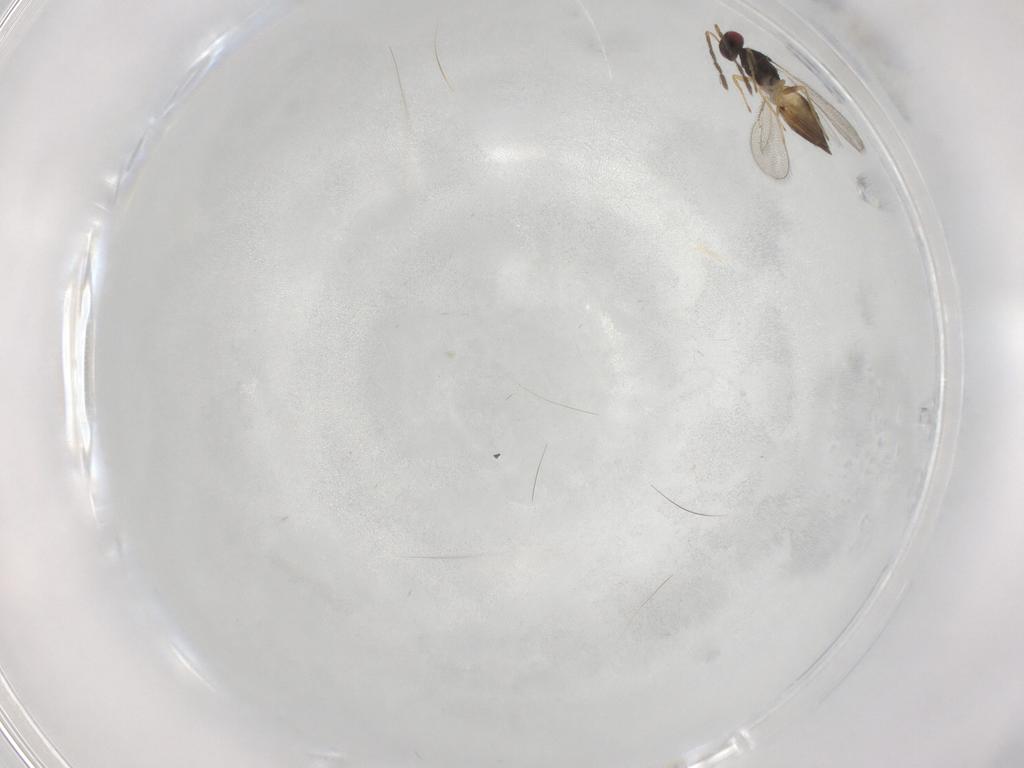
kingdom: Animalia
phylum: Arthropoda
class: Insecta
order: Hymenoptera
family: Eulophidae
